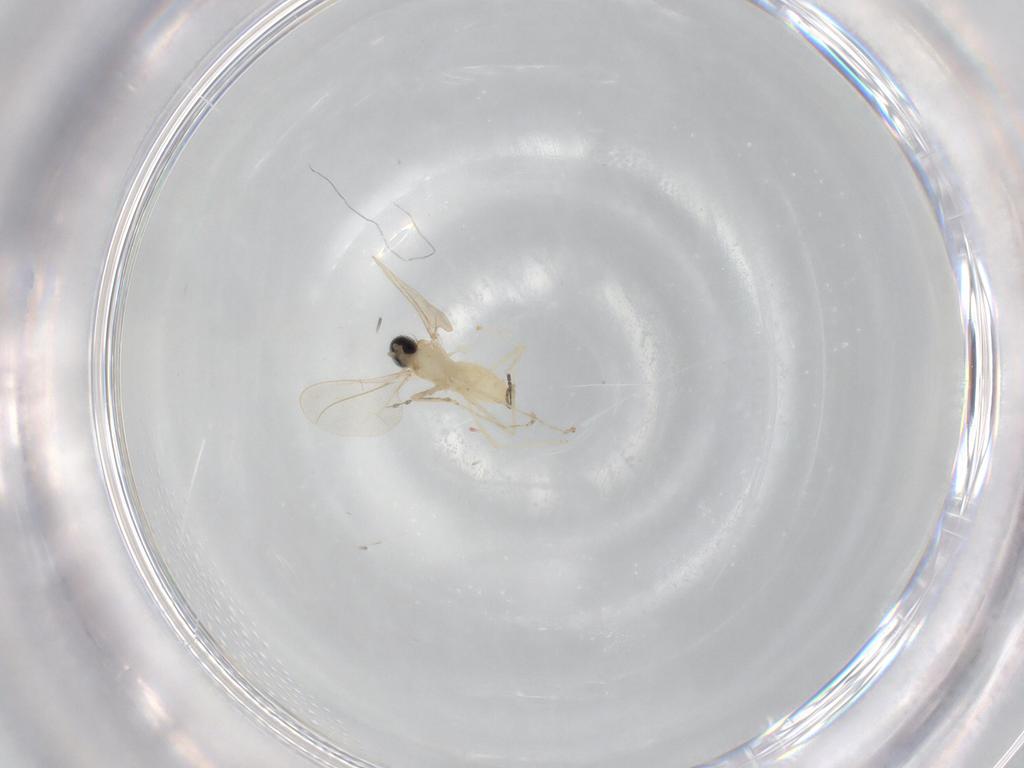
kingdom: Animalia
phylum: Arthropoda
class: Insecta
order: Diptera
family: Cecidomyiidae
